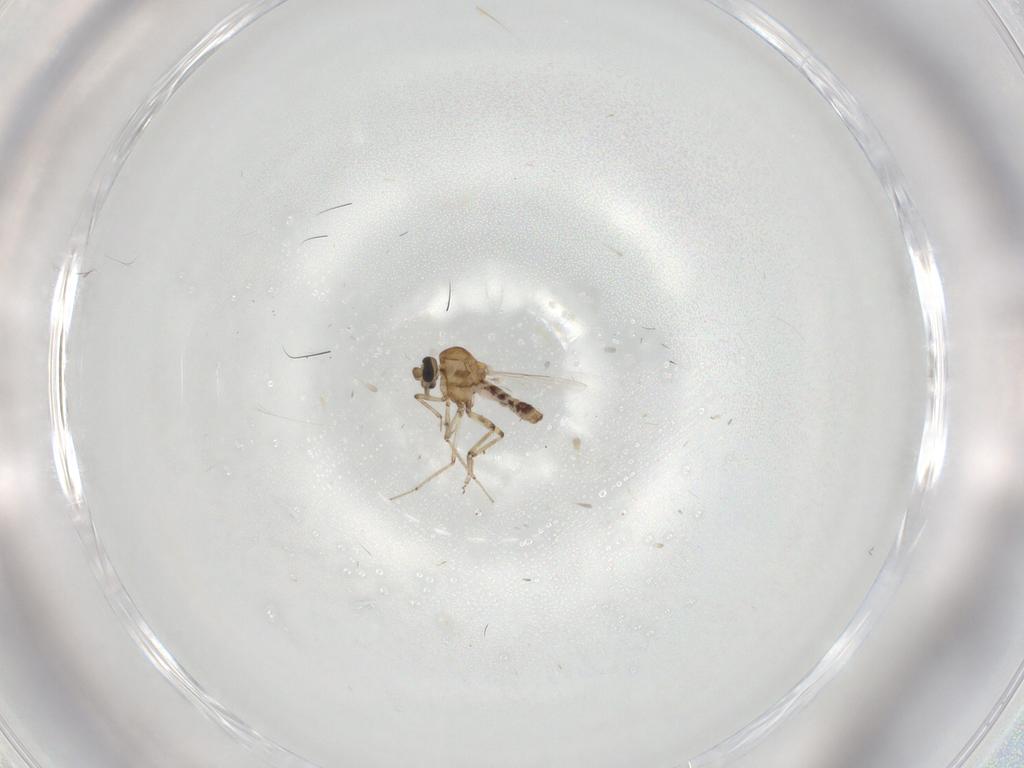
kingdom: Animalia
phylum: Arthropoda
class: Insecta
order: Diptera
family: Ceratopogonidae
